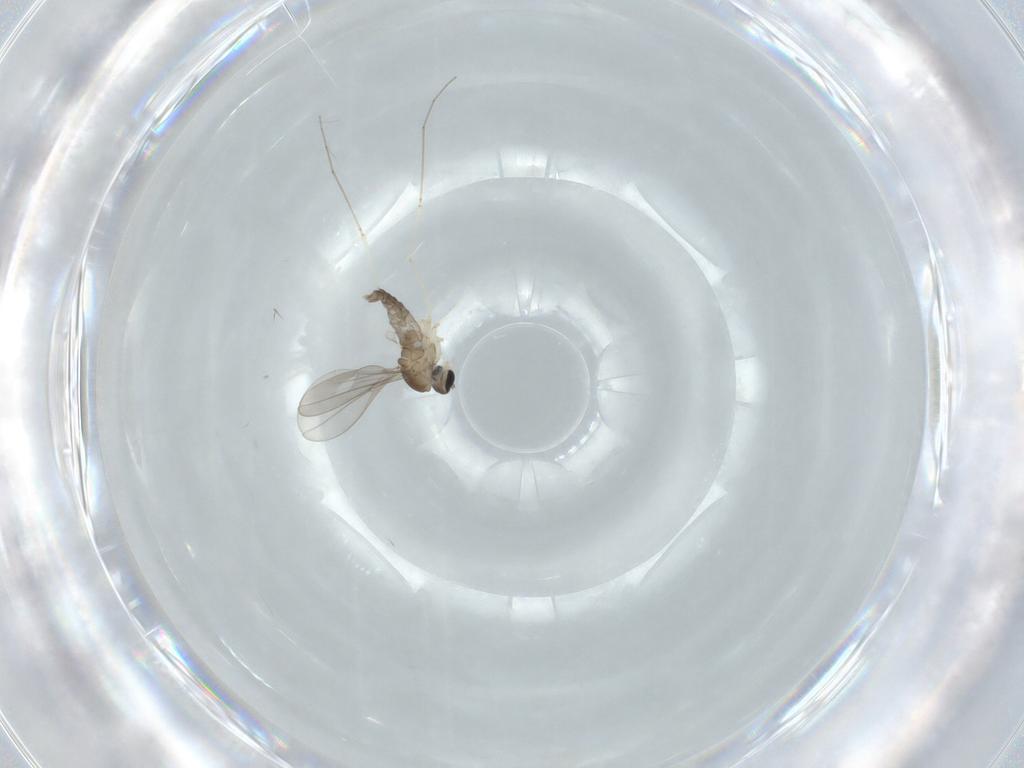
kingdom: Animalia
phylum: Arthropoda
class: Insecta
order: Diptera
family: Cecidomyiidae
